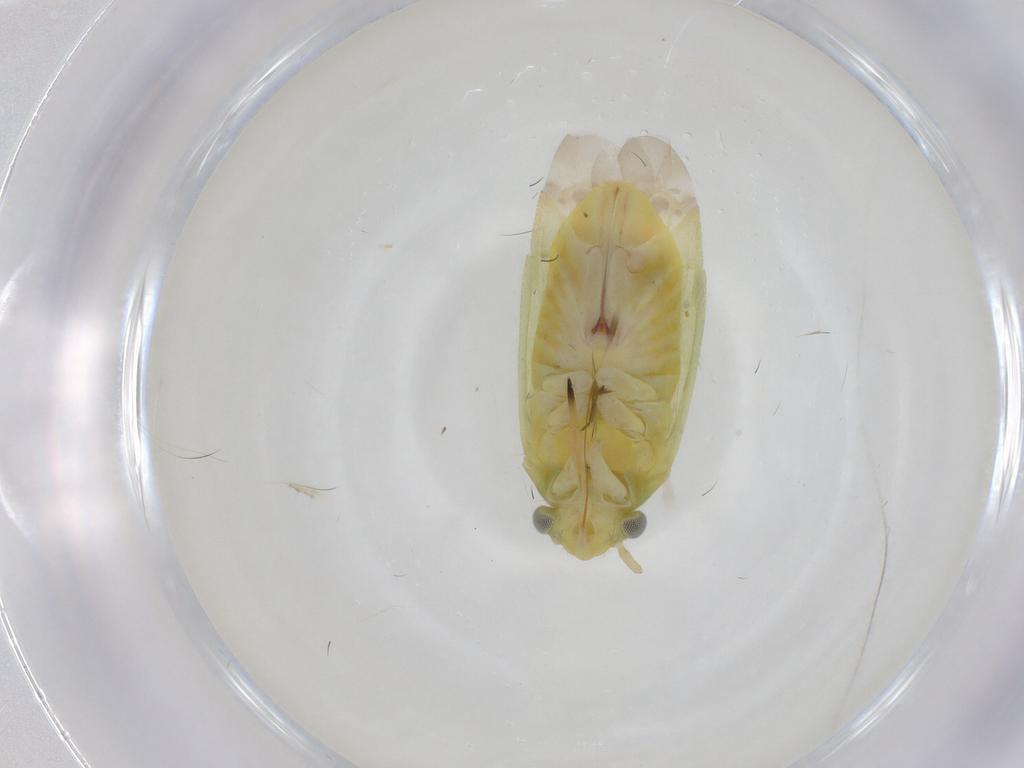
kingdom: Animalia
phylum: Arthropoda
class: Insecta
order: Hemiptera
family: Miridae
